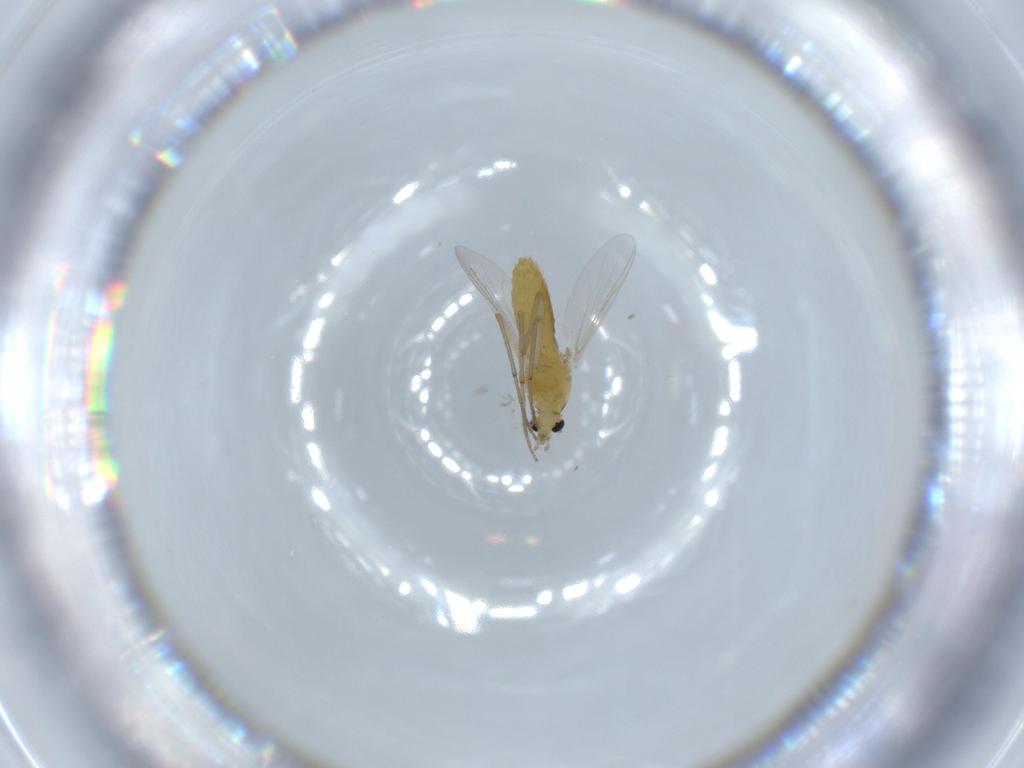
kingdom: Animalia
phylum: Arthropoda
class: Insecta
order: Diptera
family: Chironomidae
